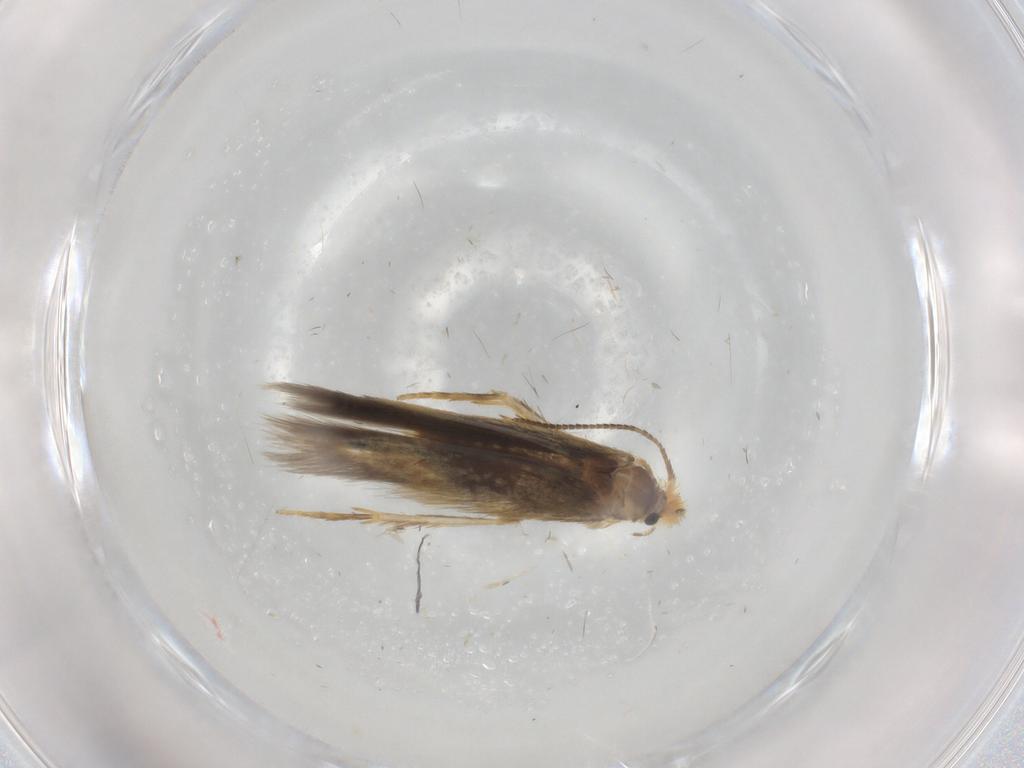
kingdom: Animalia
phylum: Arthropoda
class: Insecta
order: Lepidoptera
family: Nepticulidae
